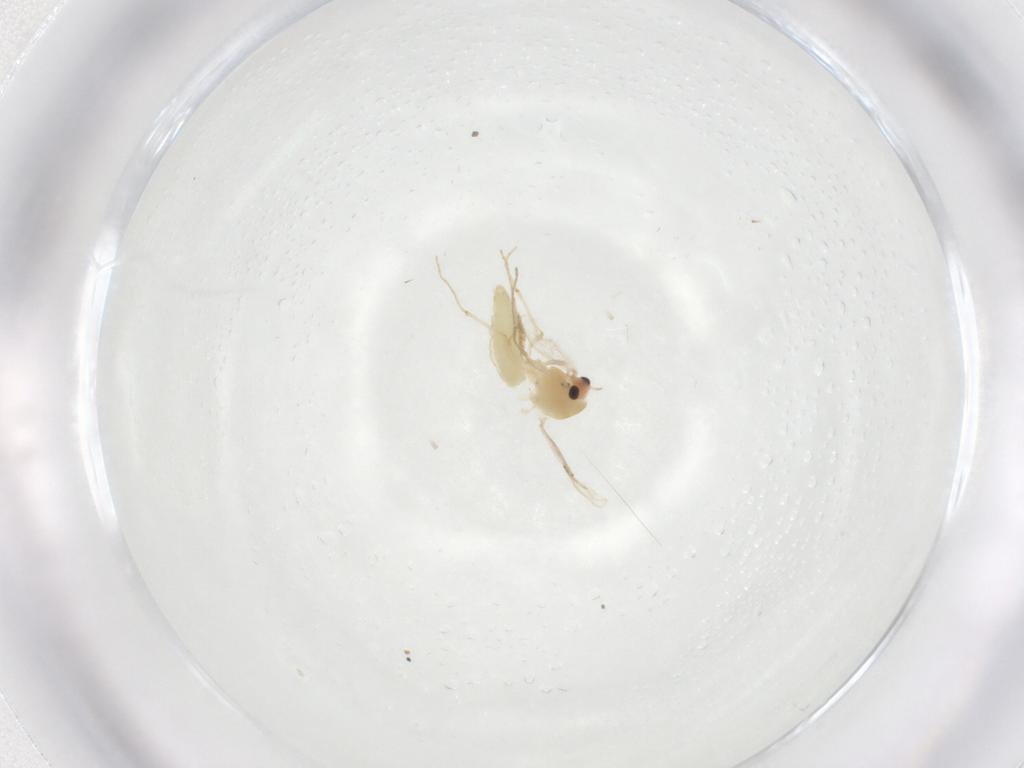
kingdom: Animalia
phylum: Arthropoda
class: Insecta
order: Diptera
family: Chironomidae
